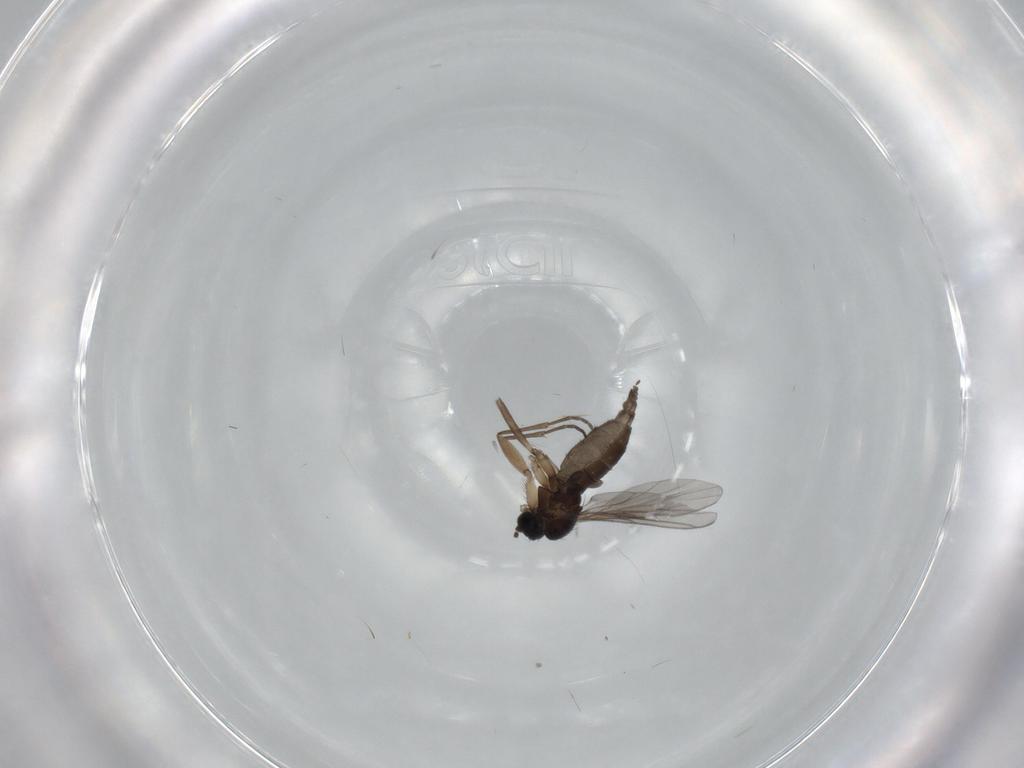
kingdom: Animalia
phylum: Arthropoda
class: Insecta
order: Diptera
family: Sciaridae
